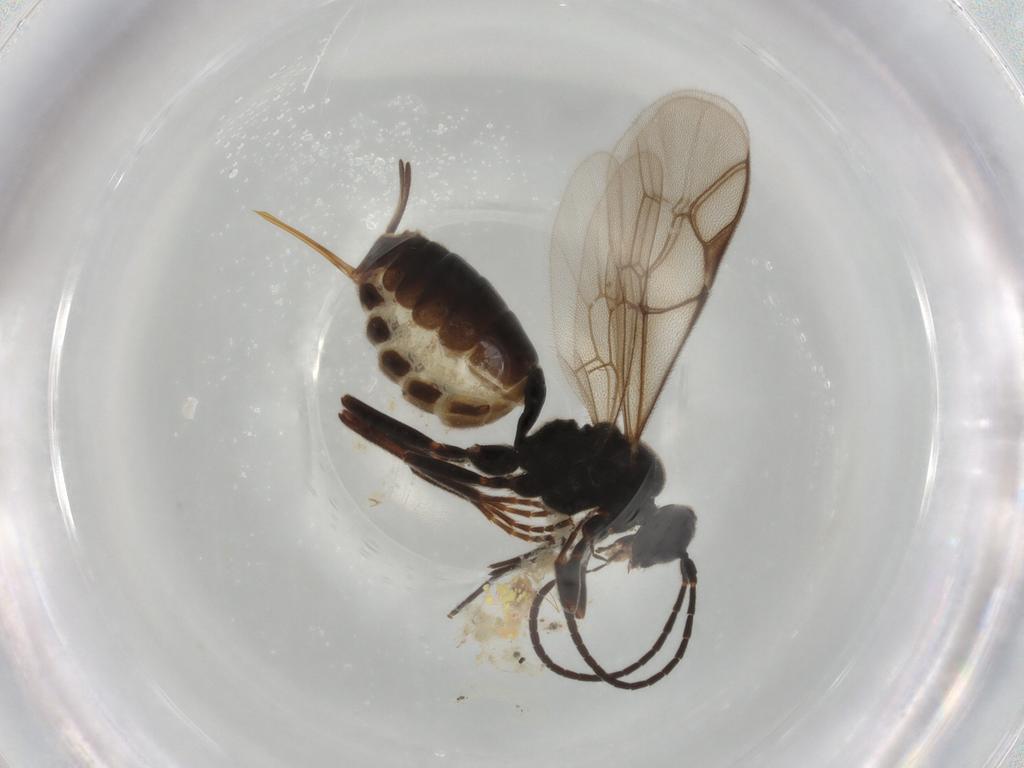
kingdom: Animalia
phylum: Arthropoda
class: Insecta
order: Hymenoptera
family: Ichneumonidae
